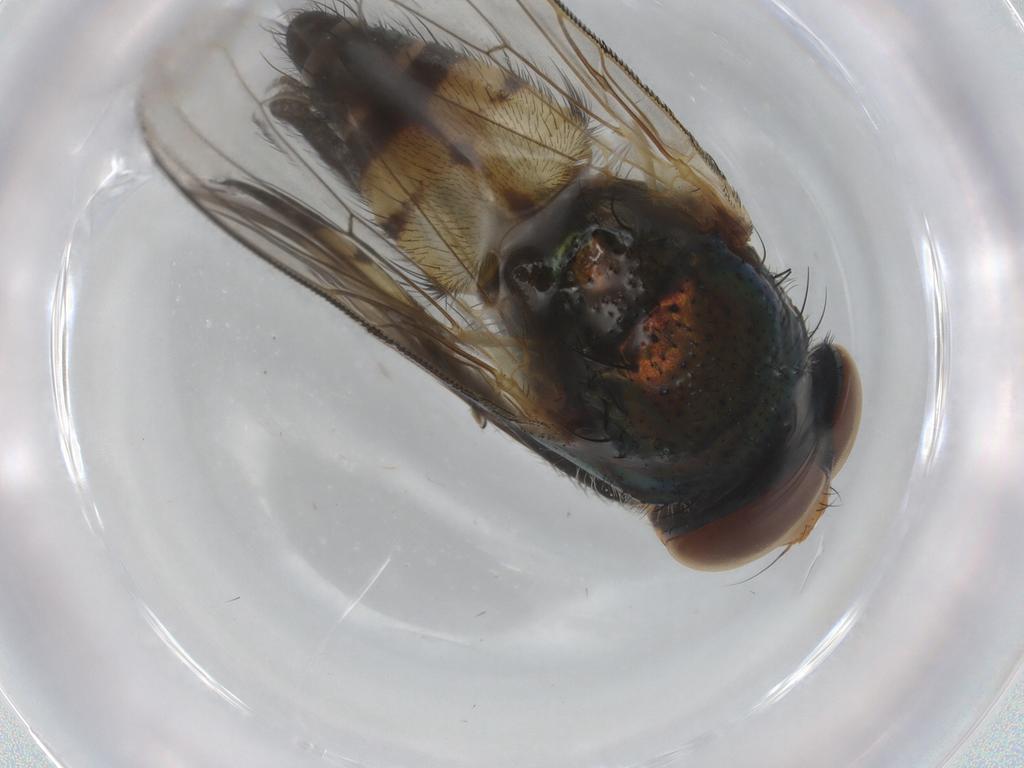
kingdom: Animalia
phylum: Arthropoda
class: Insecta
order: Diptera
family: Calliphoridae
